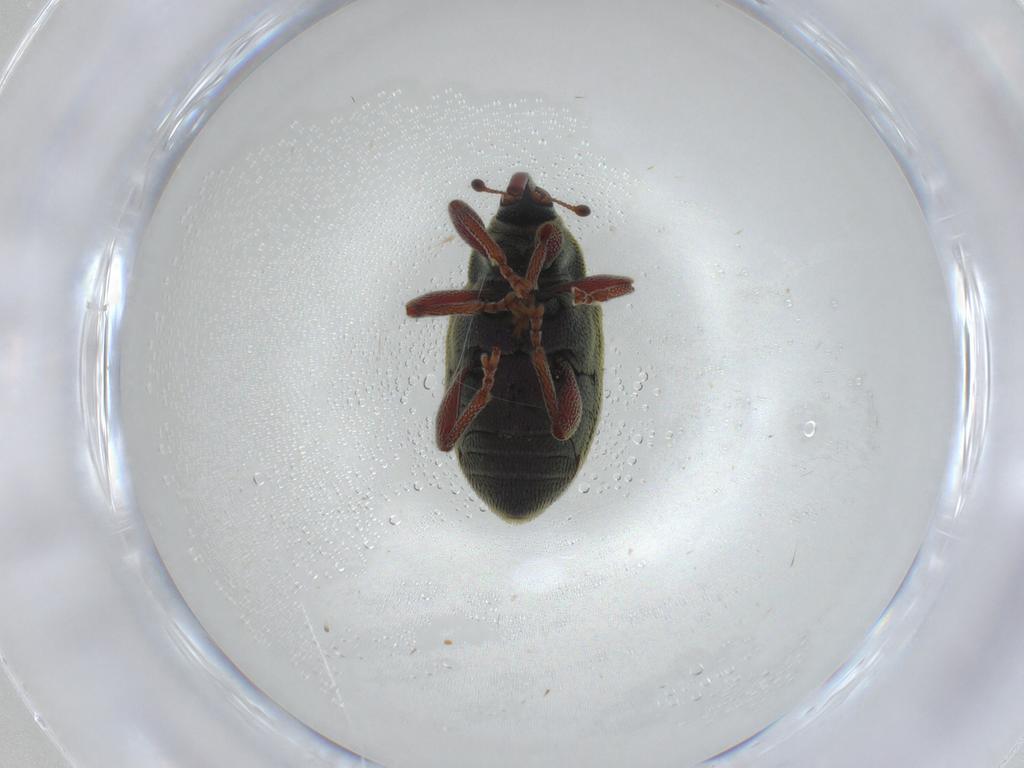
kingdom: Animalia
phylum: Arthropoda
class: Insecta
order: Coleoptera
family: Curculionidae
